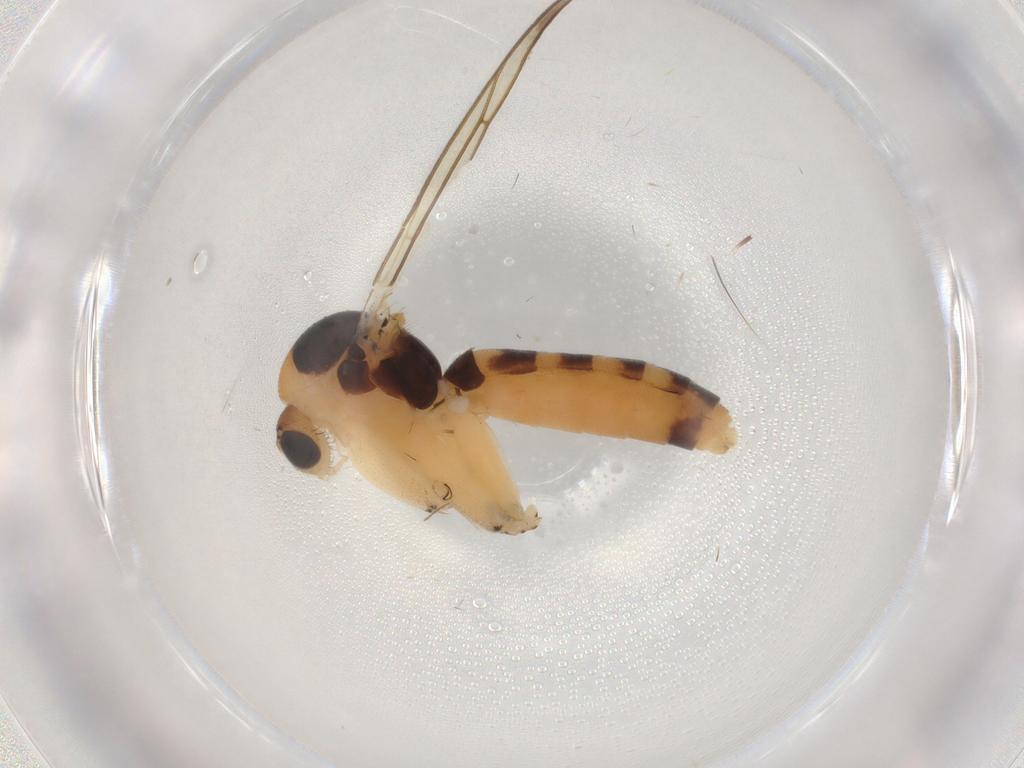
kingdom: Animalia
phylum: Arthropoda
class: Insecta
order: Diptera
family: Mycetophilidae
